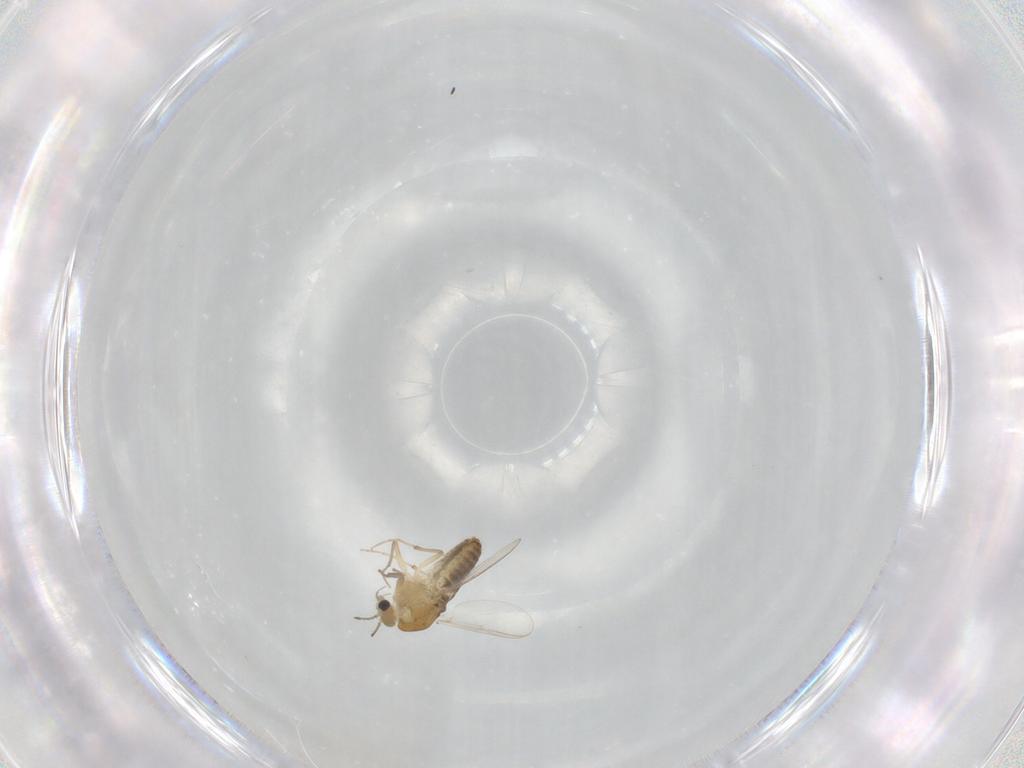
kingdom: Animalia
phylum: Arthropoda
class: Insecta
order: Diptera
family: Chironomidae
